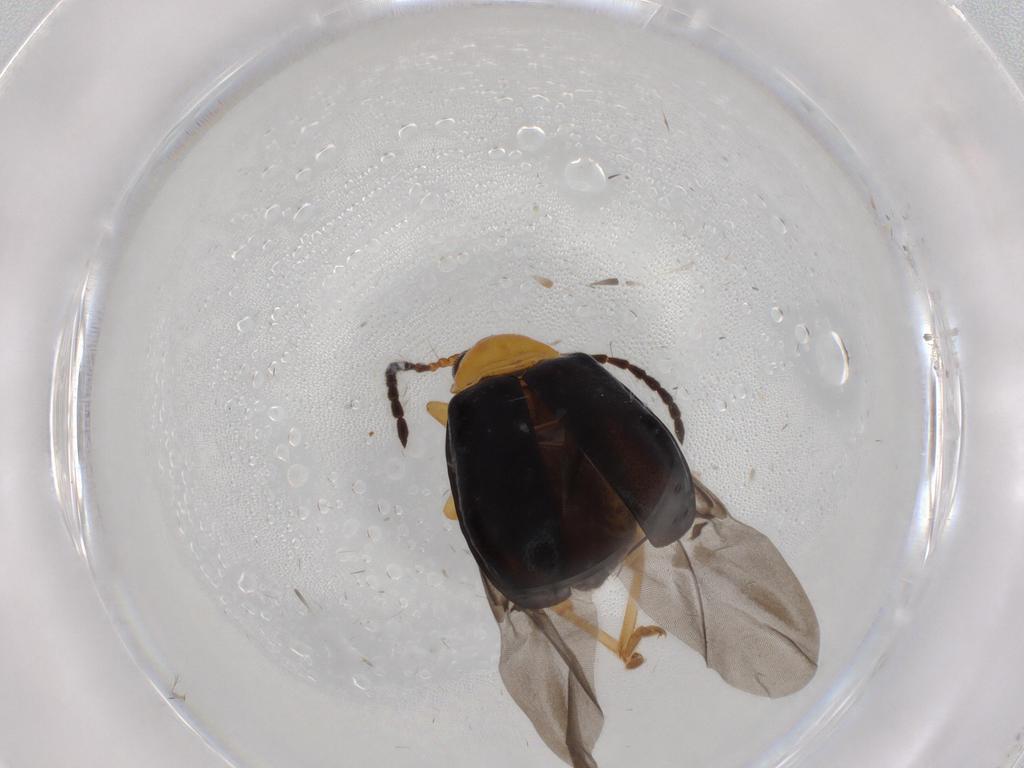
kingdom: Animalia
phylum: Arthropoda
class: Insecta
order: Coleoptera
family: Chrysomelidae
